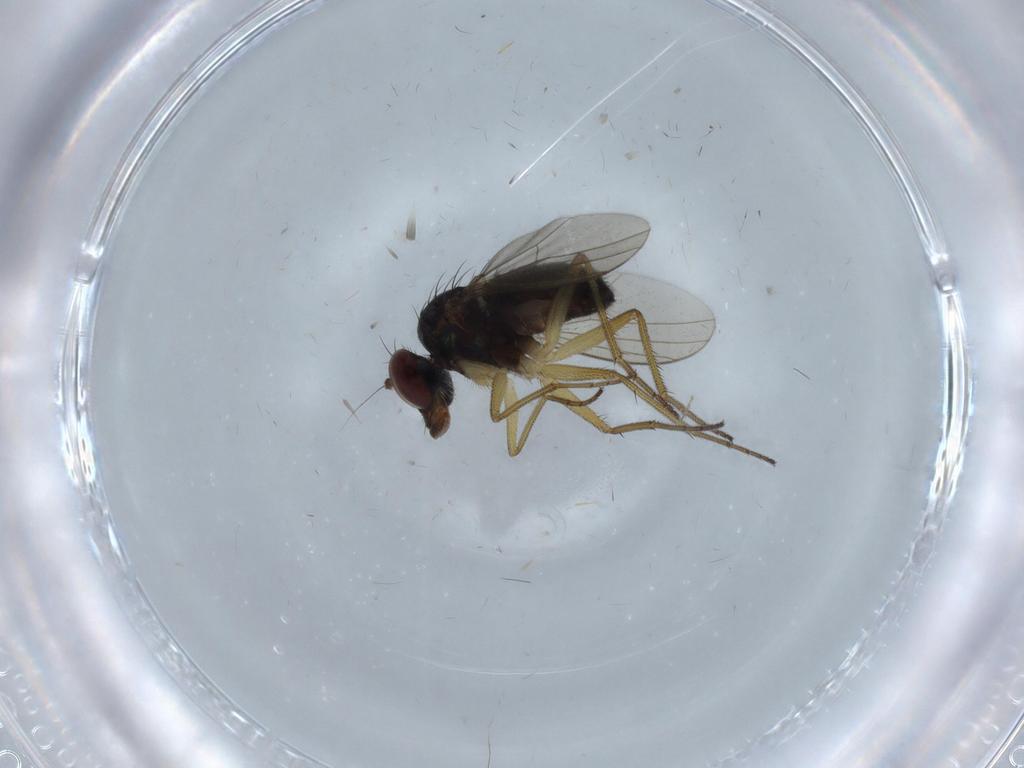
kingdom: Animalia
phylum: Arthropoda
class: Insecta
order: Diptera
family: Dolichopodidae
